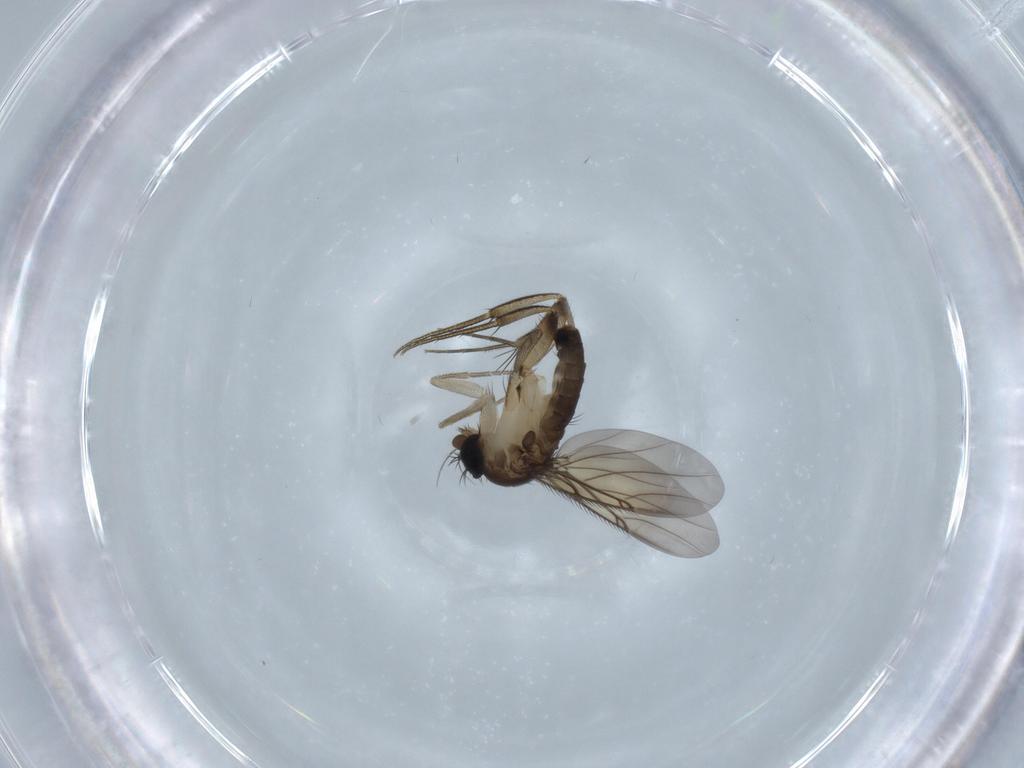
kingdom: Animalia
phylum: Arthropoda
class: Insecta
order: Diptera
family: Phoridae
